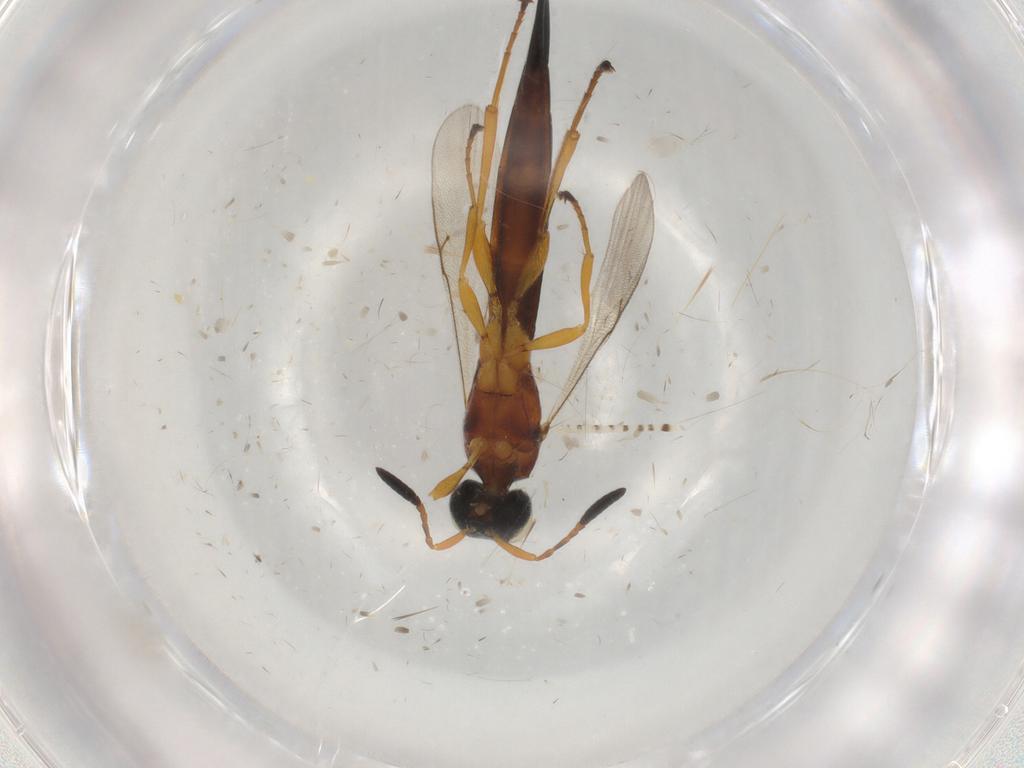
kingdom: Animalia
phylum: Arthropoda
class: Insecta
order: Hymenoptera
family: Scelionidae
